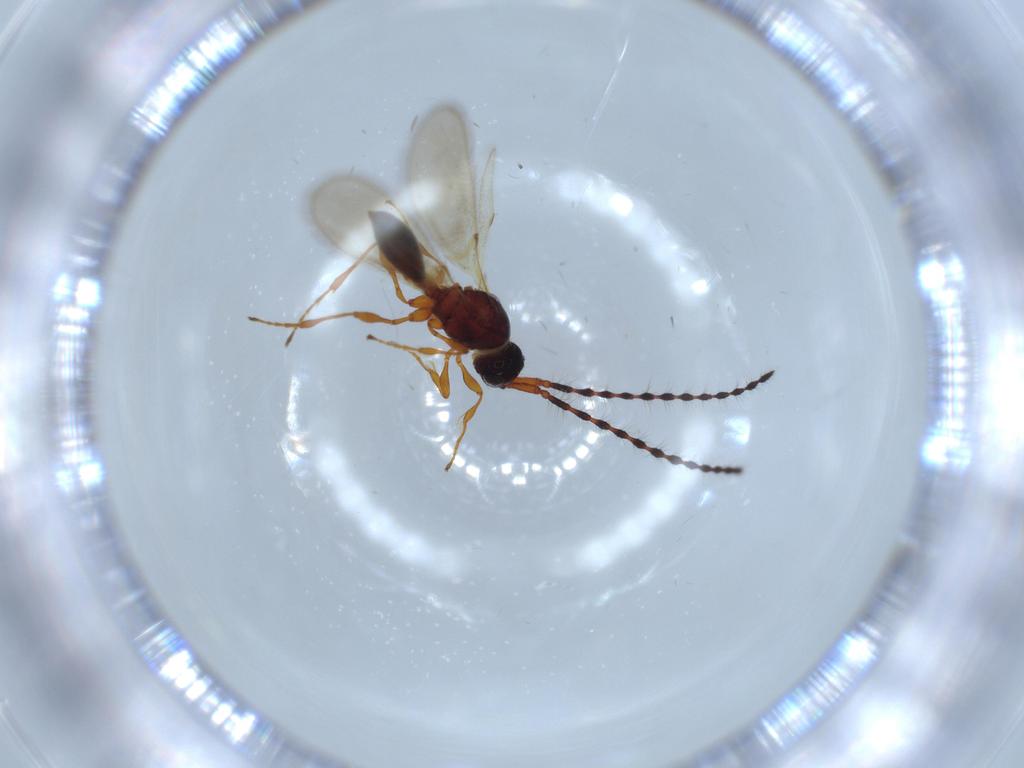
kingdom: Animalia
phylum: Arthropoda
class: Insecta
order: Hymenoptera
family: Diapriidae
